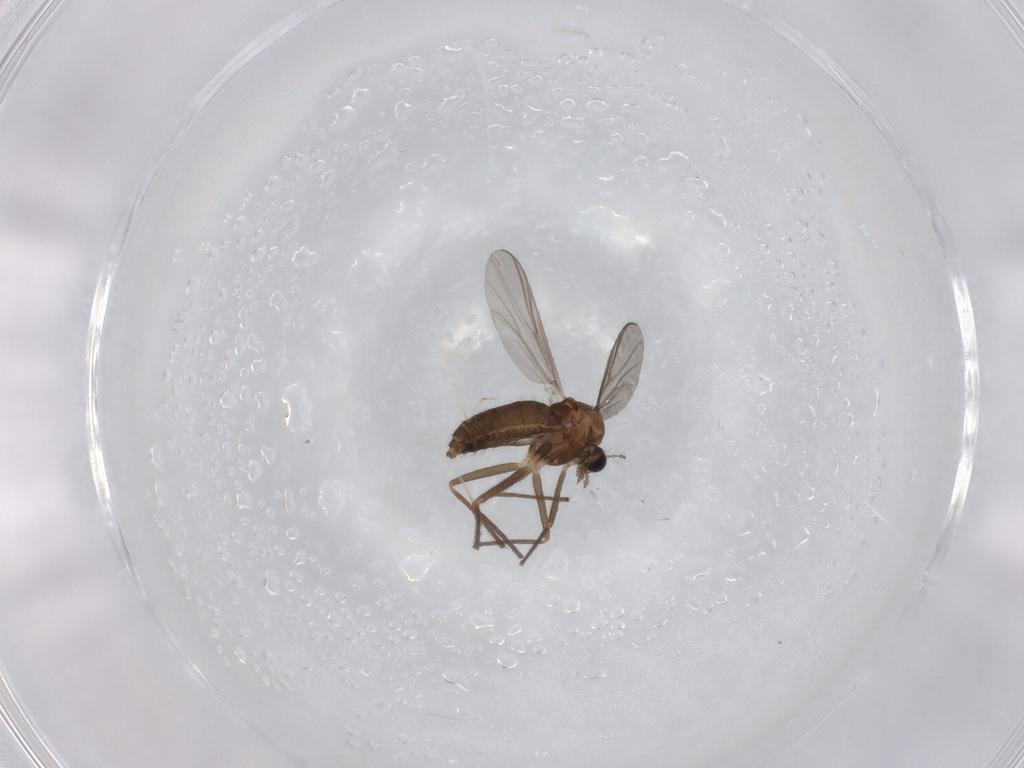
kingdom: Animalia
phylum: Arthropoda
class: Insecta
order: Diptera
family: Chironomidae
